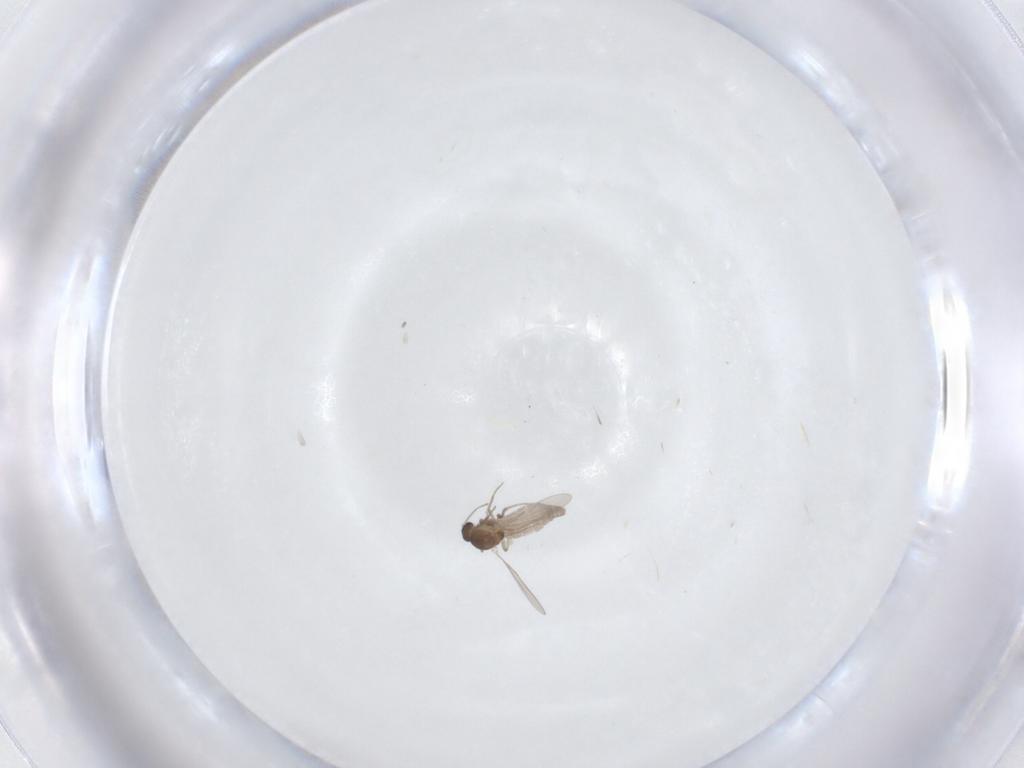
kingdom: Animalia
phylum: Arthropoda
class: Insecta
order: Diptera
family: Ceratopogonidae
